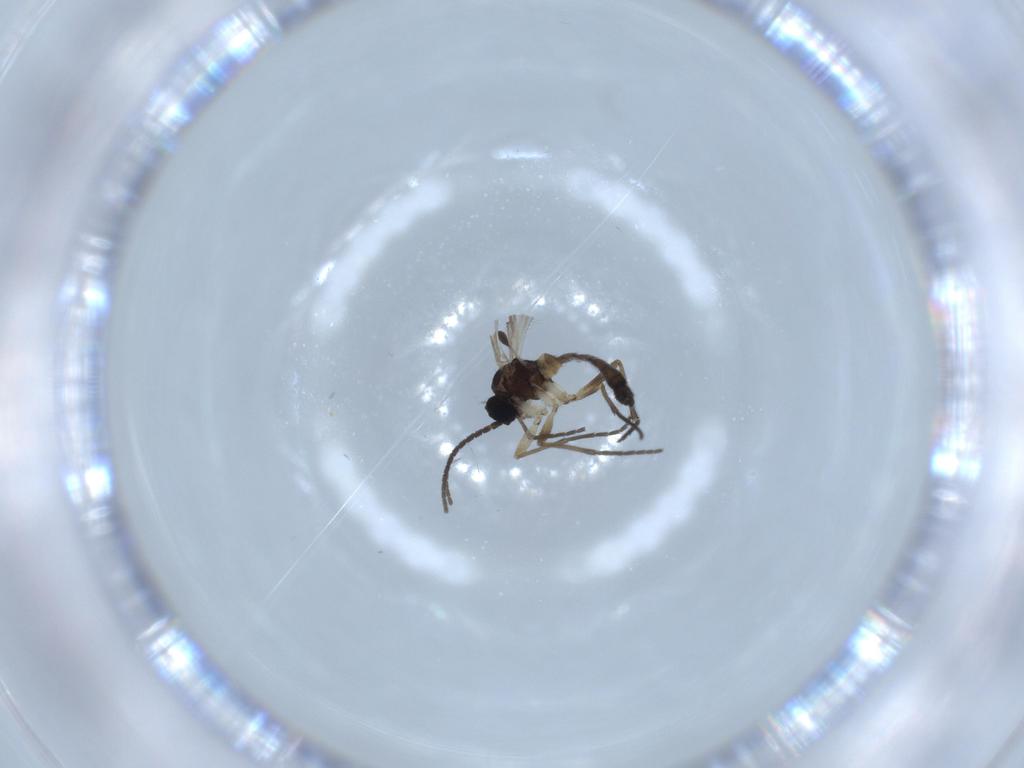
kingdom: Animalia
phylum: Arthropoda
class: Insecta
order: Diptera
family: Sciaridae
